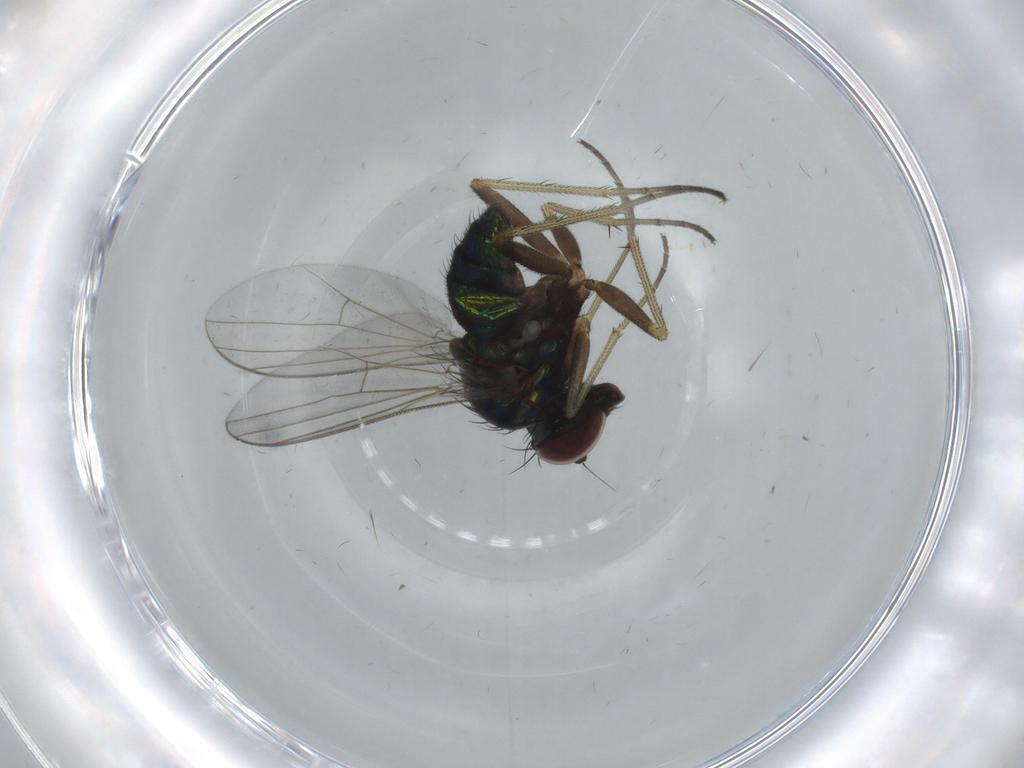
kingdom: Animalia
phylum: Arthropoda
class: Insecta
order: Diptera
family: Dolichopodidae
